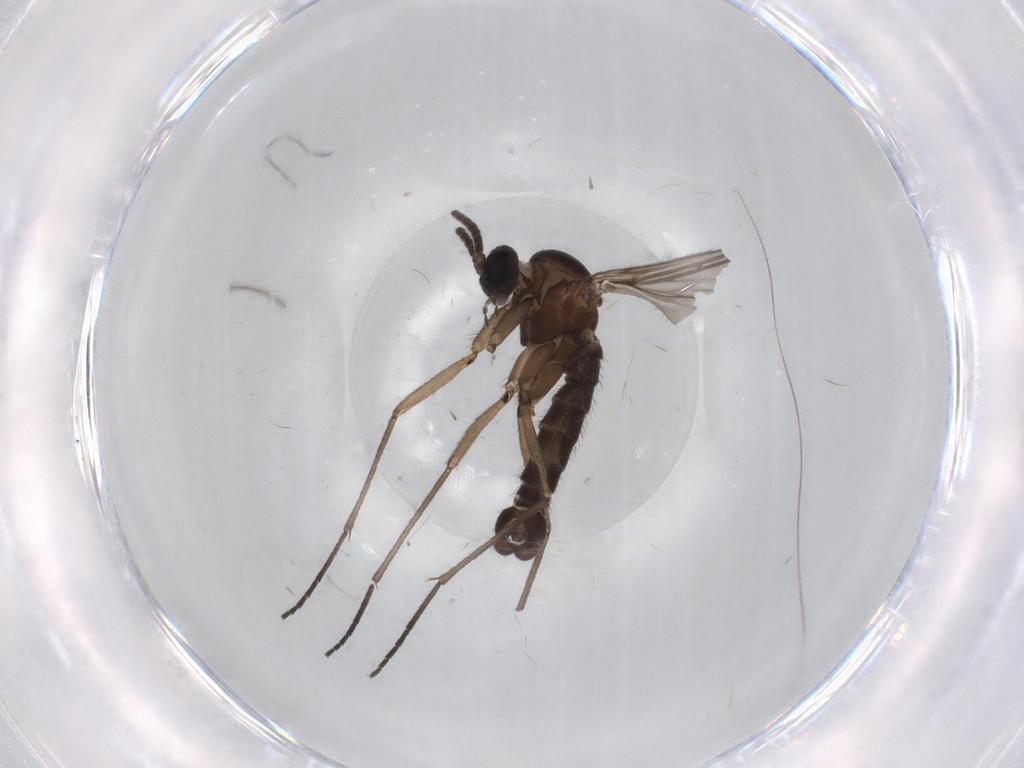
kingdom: Animalia
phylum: Arthropoda
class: Insecta
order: Diptera
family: Sciaridae
